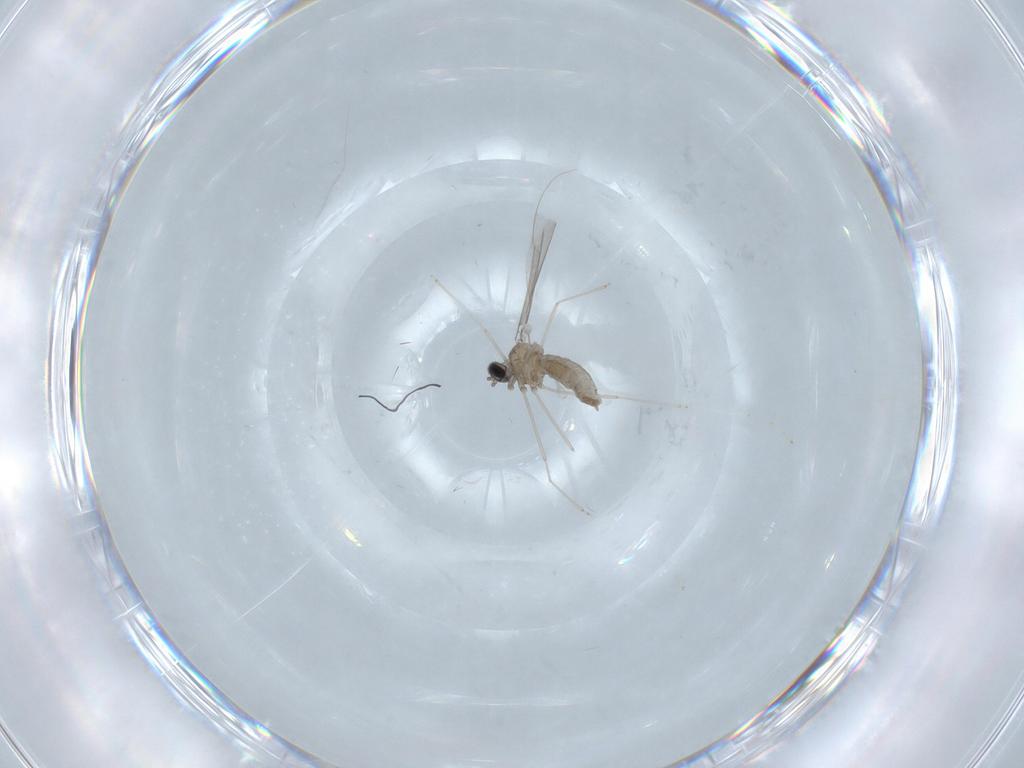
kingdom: Animalia
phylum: Arthropoda
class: Insecta
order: Diptera
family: Cecidomyiidae
